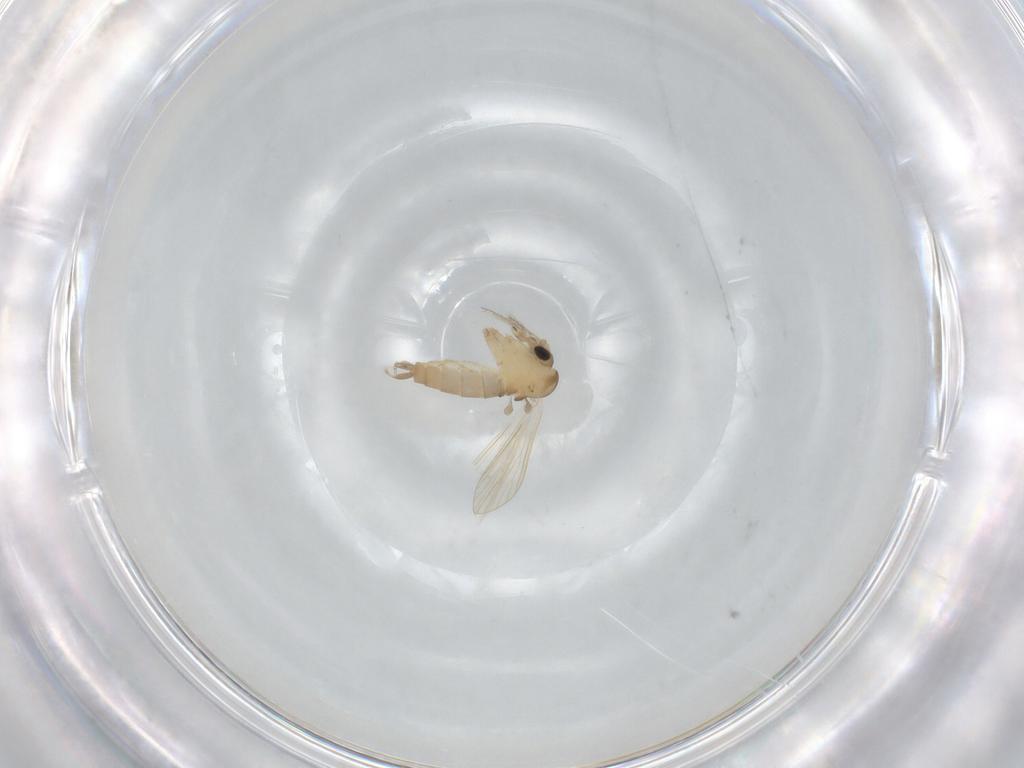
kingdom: Animalia
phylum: Arthropoda
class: Insecta
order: Diptera
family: Psychodidae
